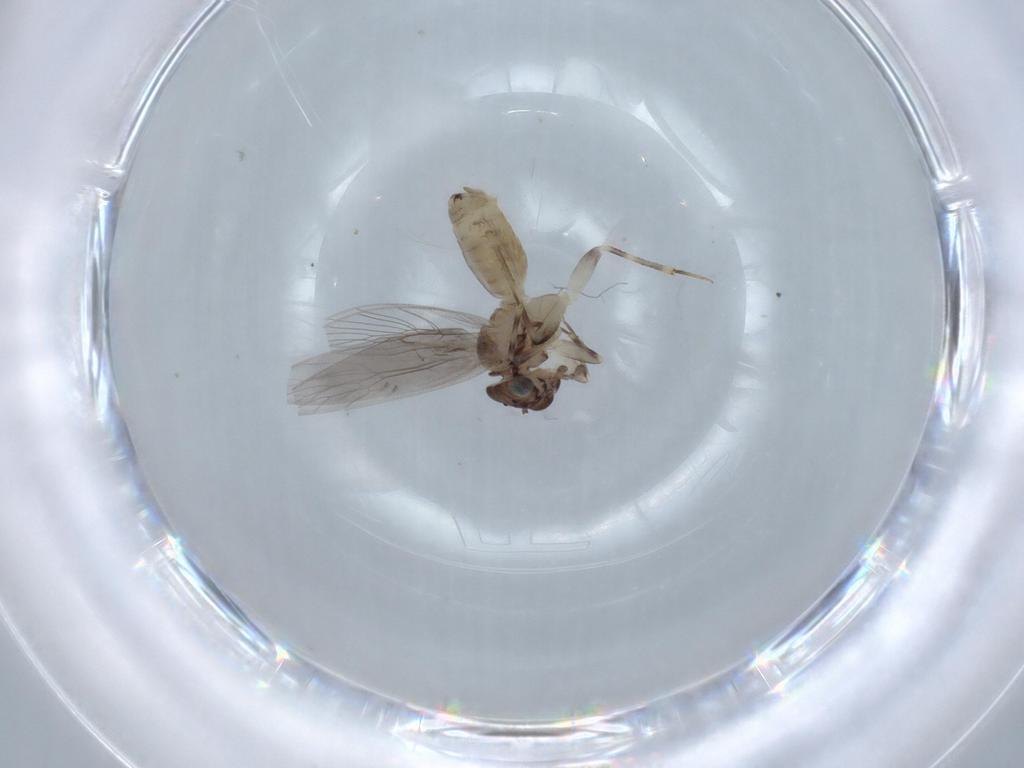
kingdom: Animalia
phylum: Arthropoda
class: Insecta
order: Psocodea
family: Lepidopsocidae
